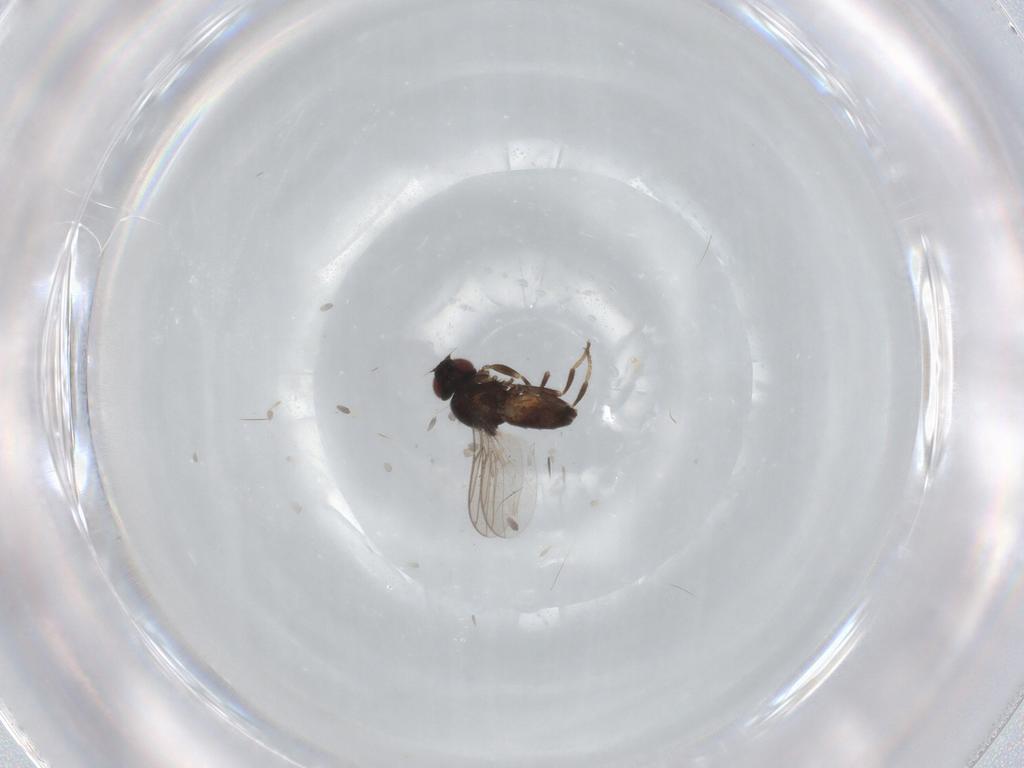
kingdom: Animalia
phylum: Arthropoda
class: Insecta
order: Diptera
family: Chloropidae
